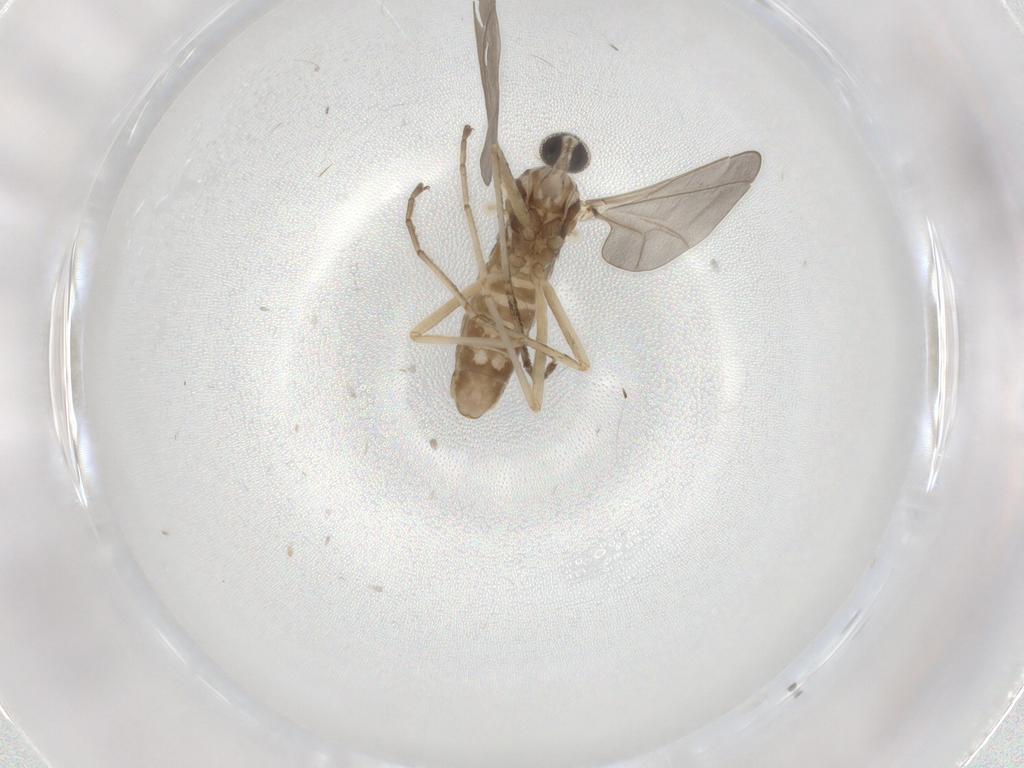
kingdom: Animalia
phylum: Arthropoda
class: Insecta
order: Diptera
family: Cecidomyiidae
